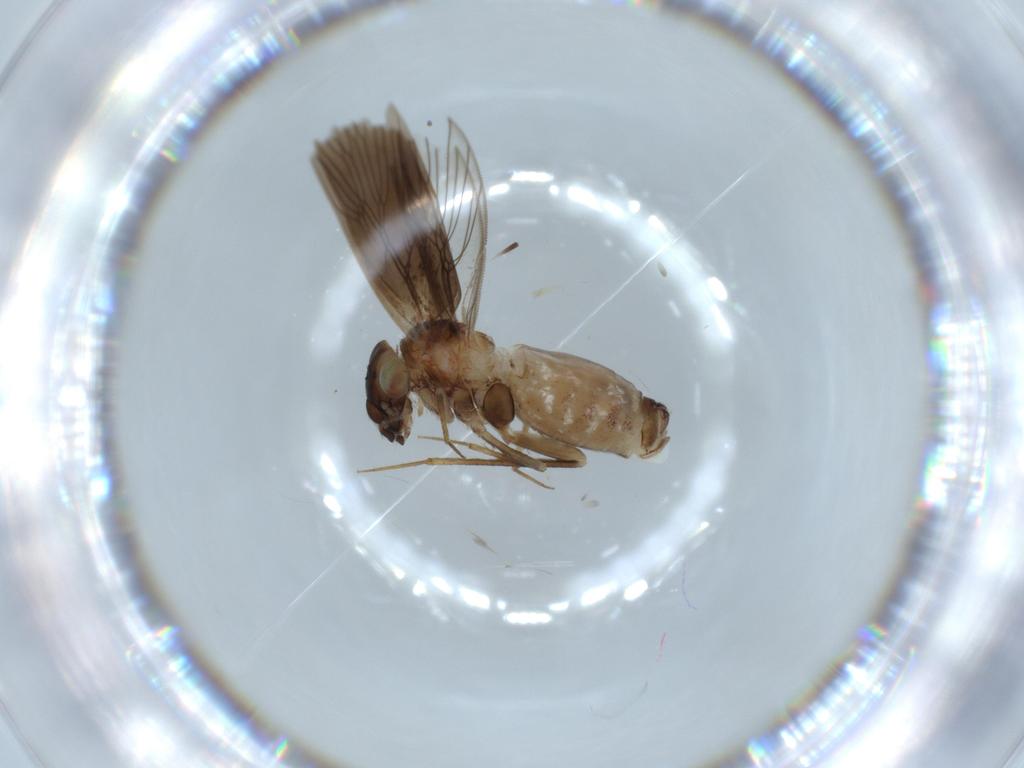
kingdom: Animalia
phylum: Arthropoda
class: Insecta
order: Psocodea
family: Lepidopsocidae
